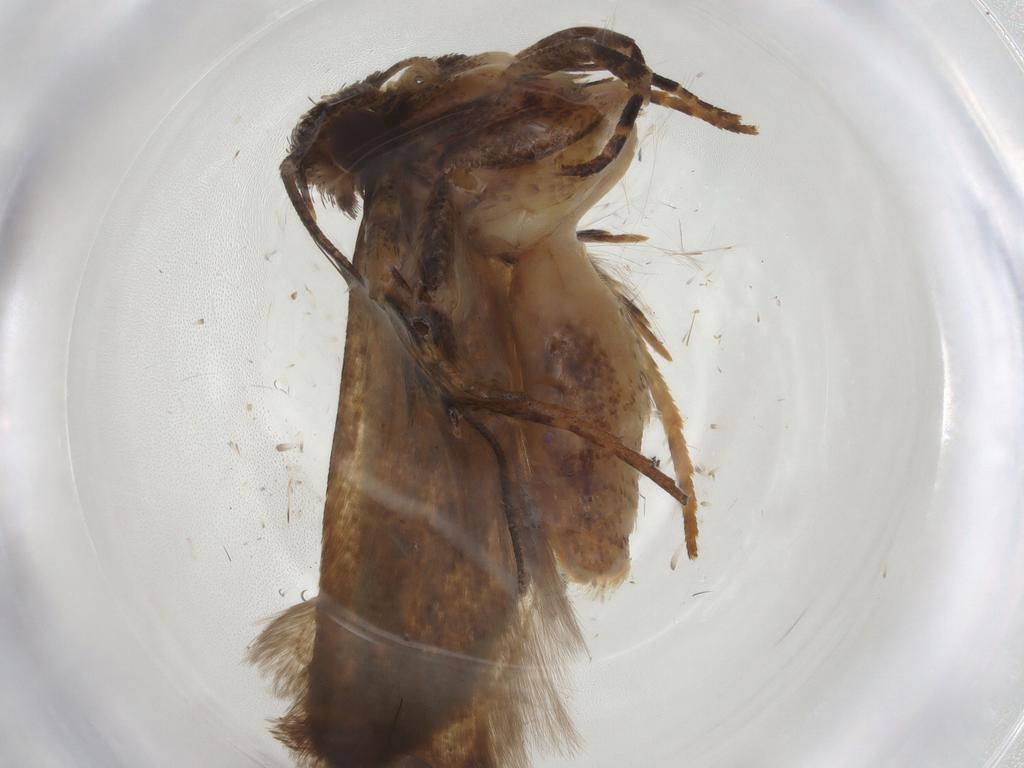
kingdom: Animalia
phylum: Arthropoda
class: Insecta
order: Lepidoptera
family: Gelechiidae
